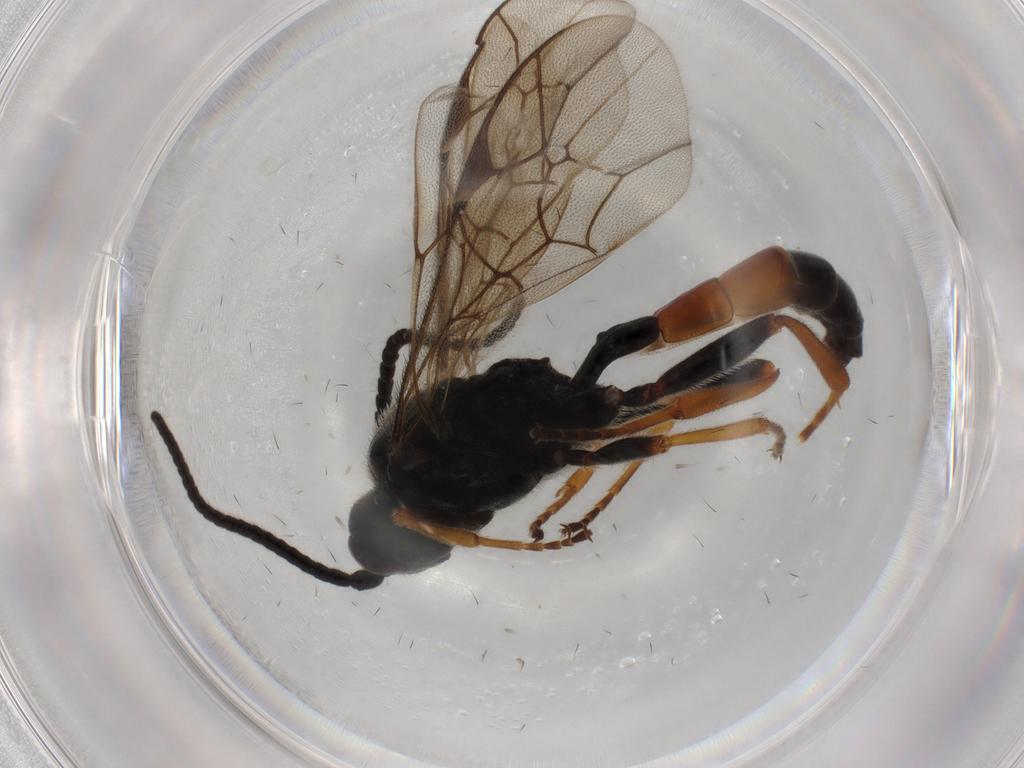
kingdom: Animalia
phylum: Arthropoda
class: Insecta
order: Hymenoptera
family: Ichneumonidae
